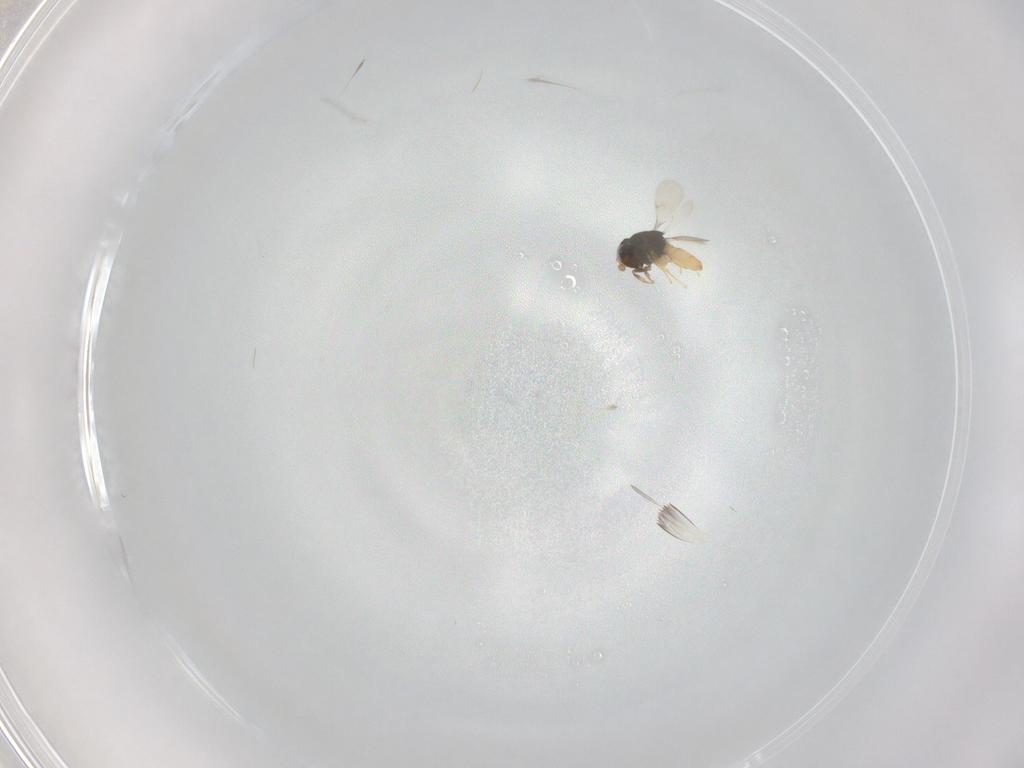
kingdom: Animalia
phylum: Arthropoda
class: Insecta
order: Hymenoptera
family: Scelionidae
